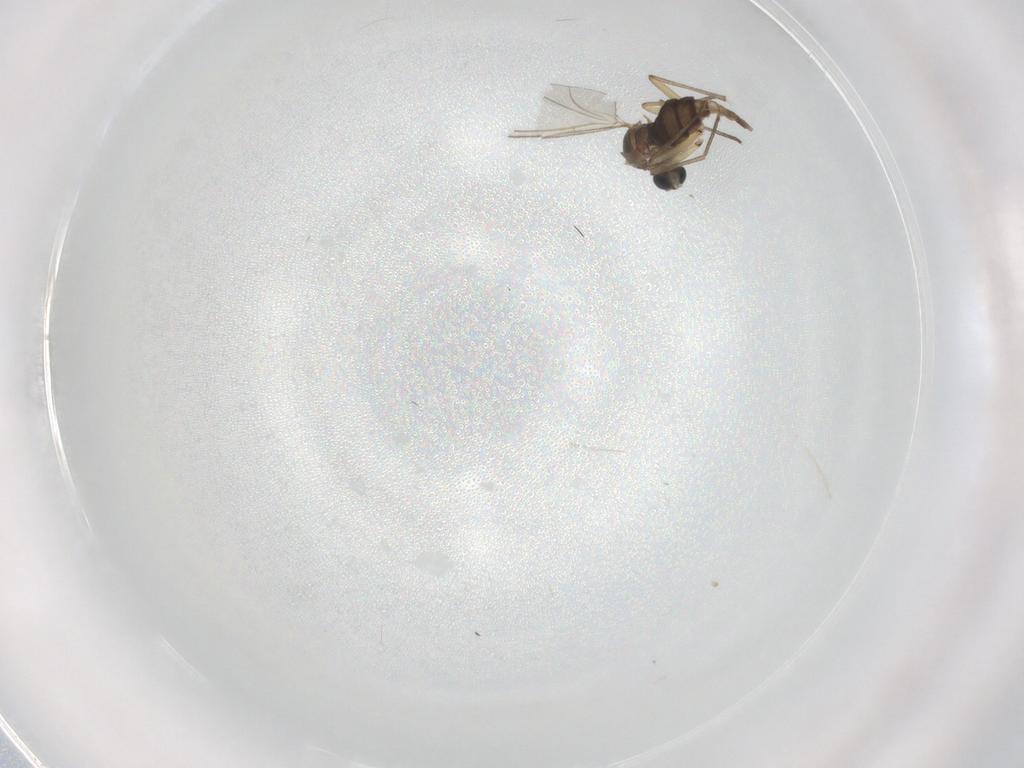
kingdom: Animalia
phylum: Arthropoda
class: Insecta
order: Diptera
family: Sciaridae
